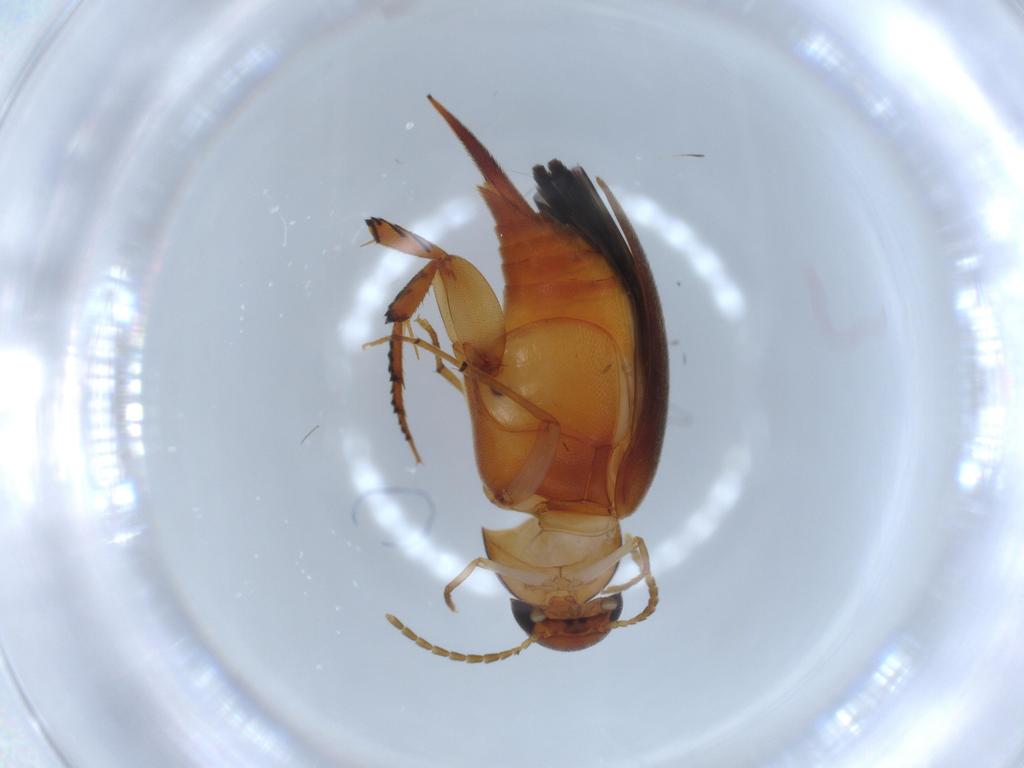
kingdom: Animalia
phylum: Arthropoda
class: Insecta
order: Coleoptera
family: Mordellidae
